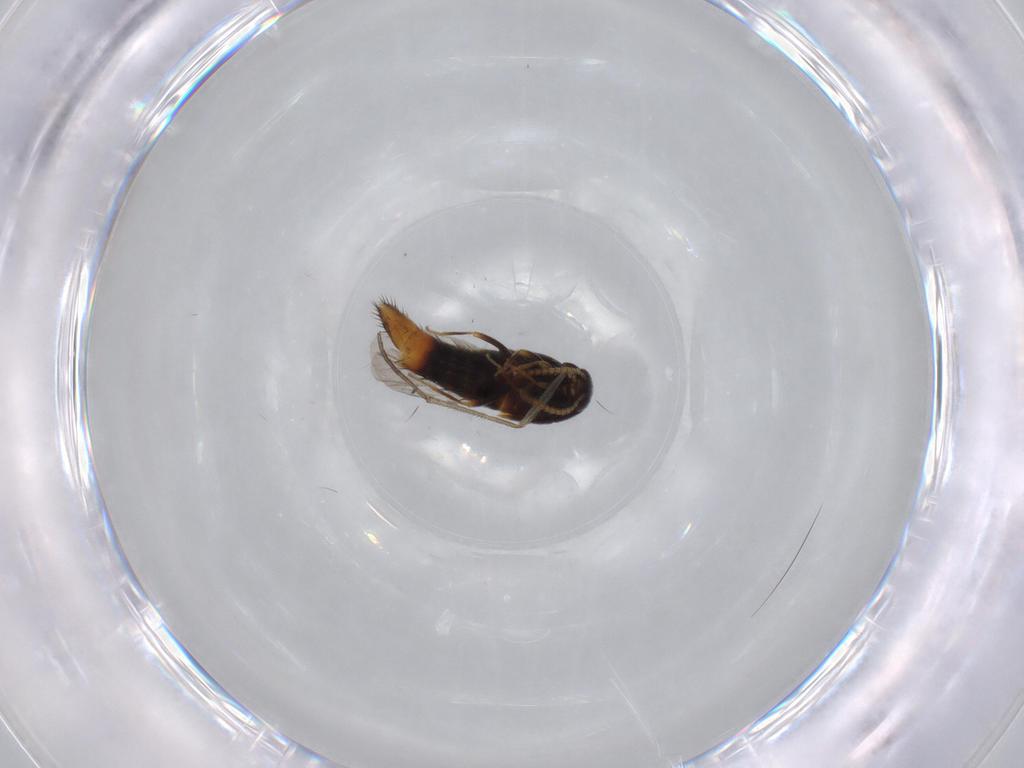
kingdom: Animalia
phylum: Arthropoda
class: Insecta
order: Coleoptera
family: Staphylinidae
